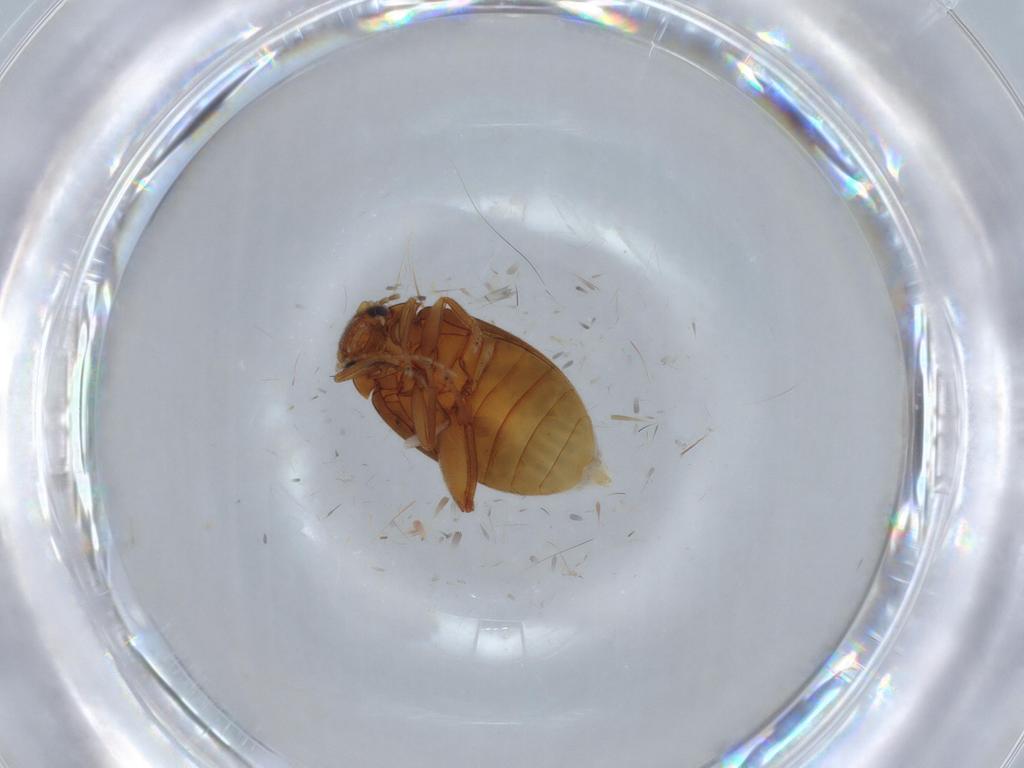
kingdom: Animalia
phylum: Arthropoda
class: Insecta
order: Coleoptera
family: Scirtidae
